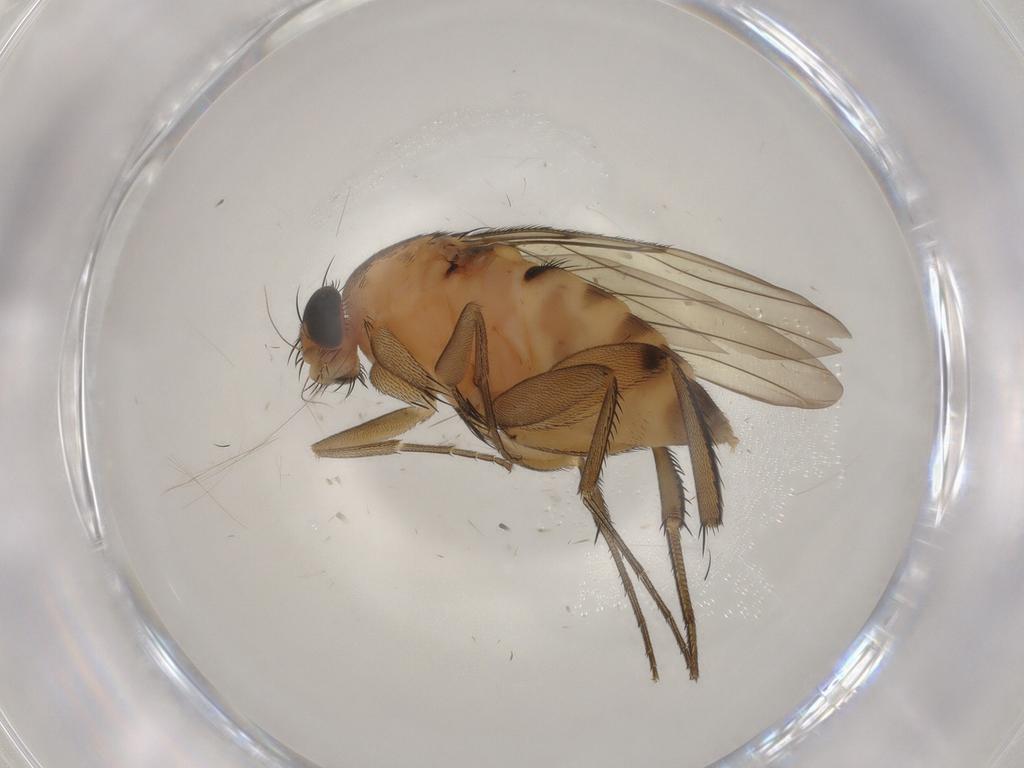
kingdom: Animalia
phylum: Arthropoda
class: Insecta
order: Diptera
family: Phoridae
